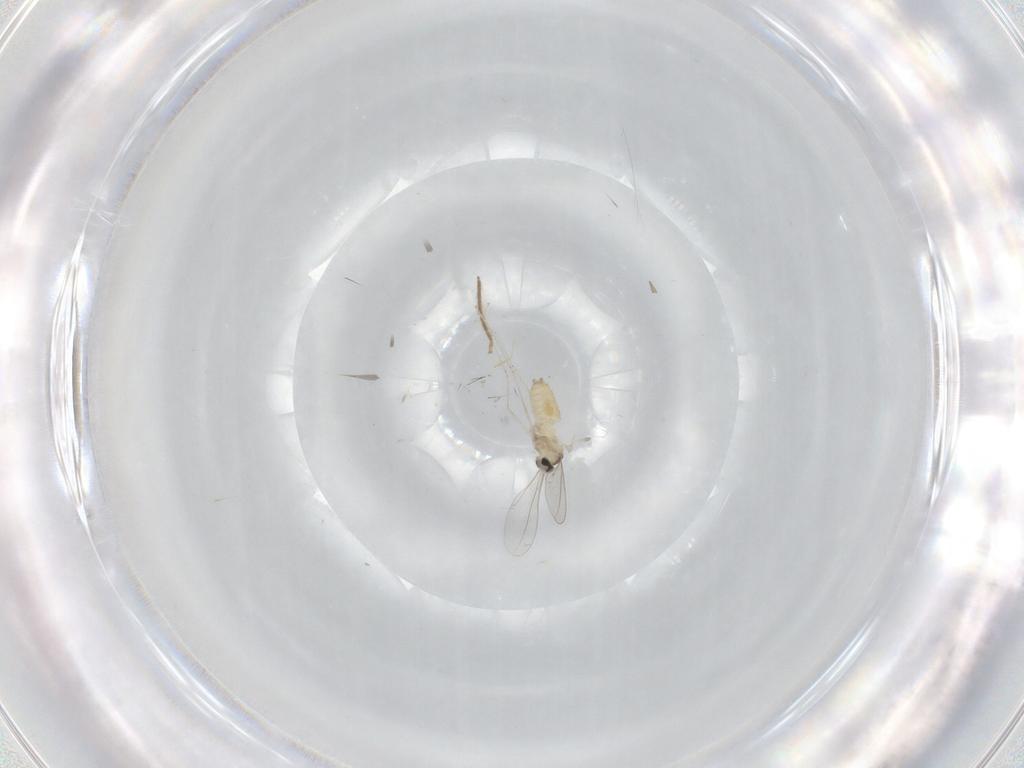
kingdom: Animalia
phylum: Arthropoda
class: Insecta
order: Diptera
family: Cecidomyiidae
